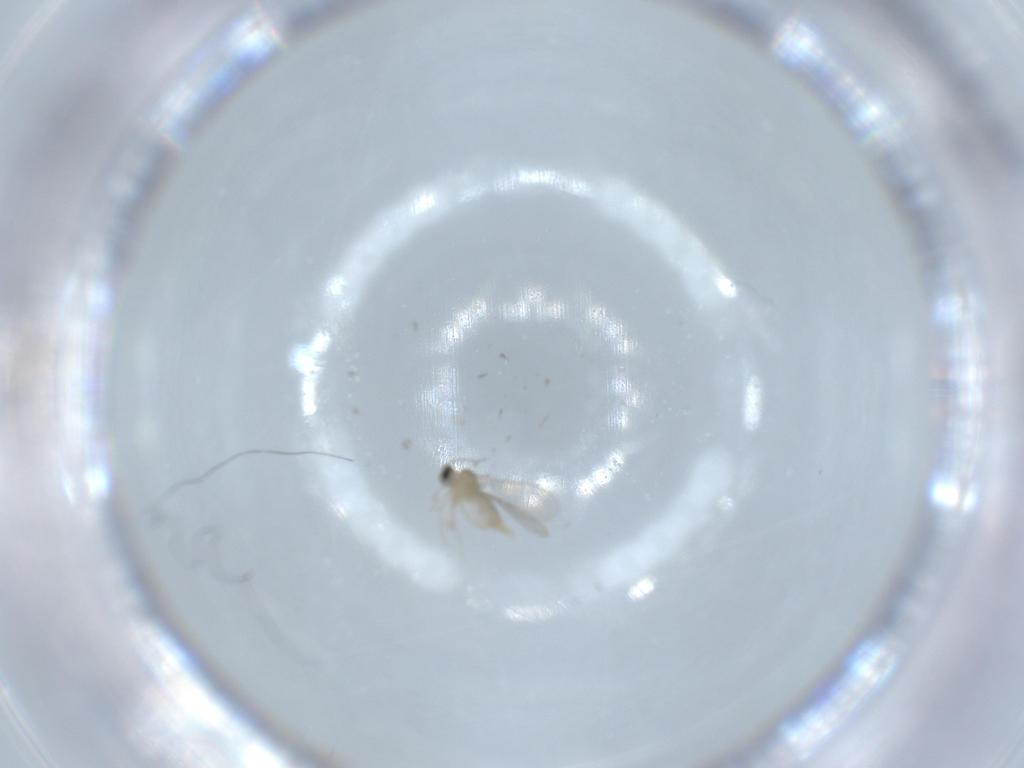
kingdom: Animalia
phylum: Arthropoda
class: Insecta
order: Diptera
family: Cecidomyiidae
